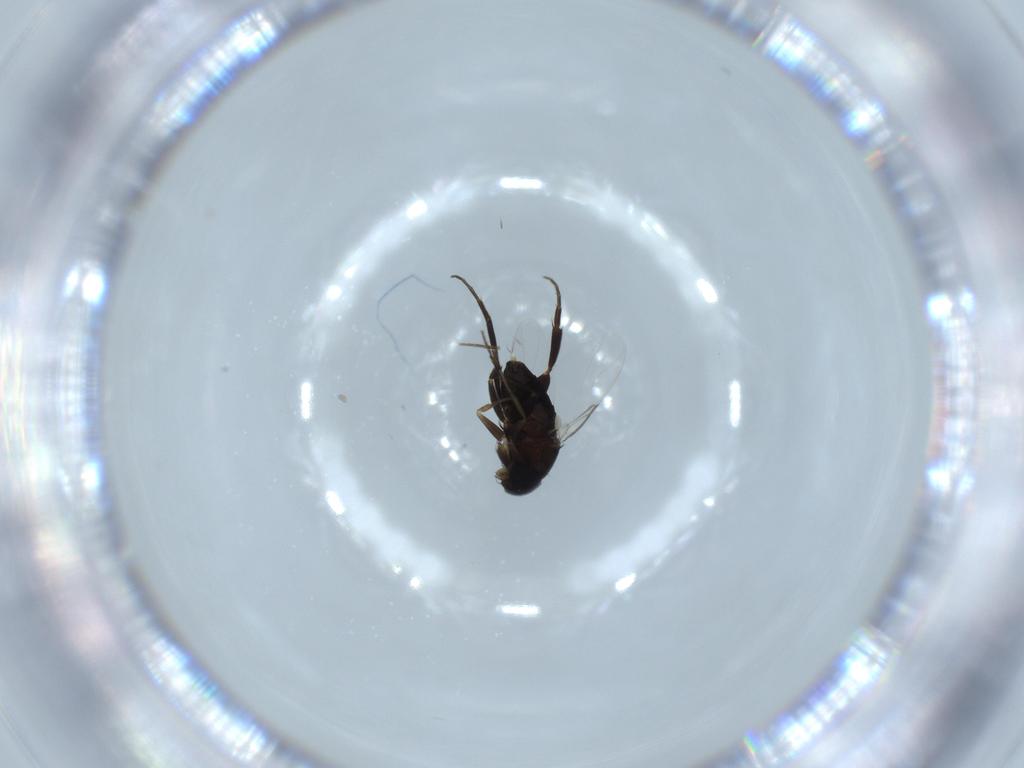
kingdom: Animalia
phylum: Arthropoda
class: Insecta
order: Diptera
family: Phoridae
